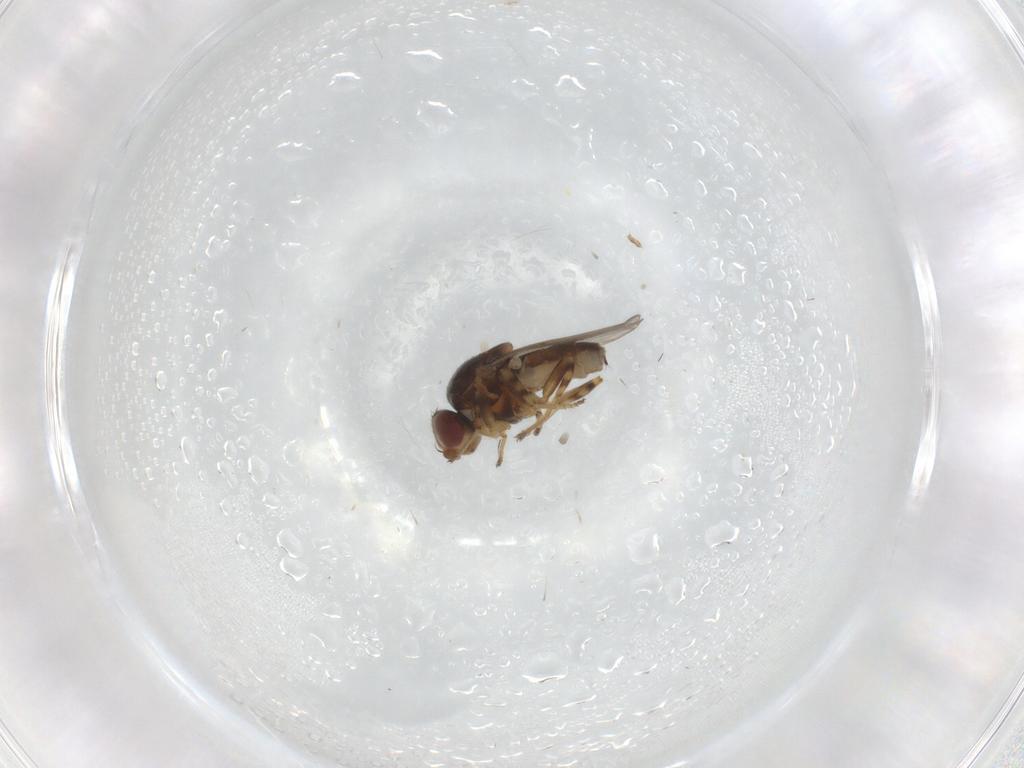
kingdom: Animalia
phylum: Arthropoda
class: Insecta
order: Diptera
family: Chloropidae
